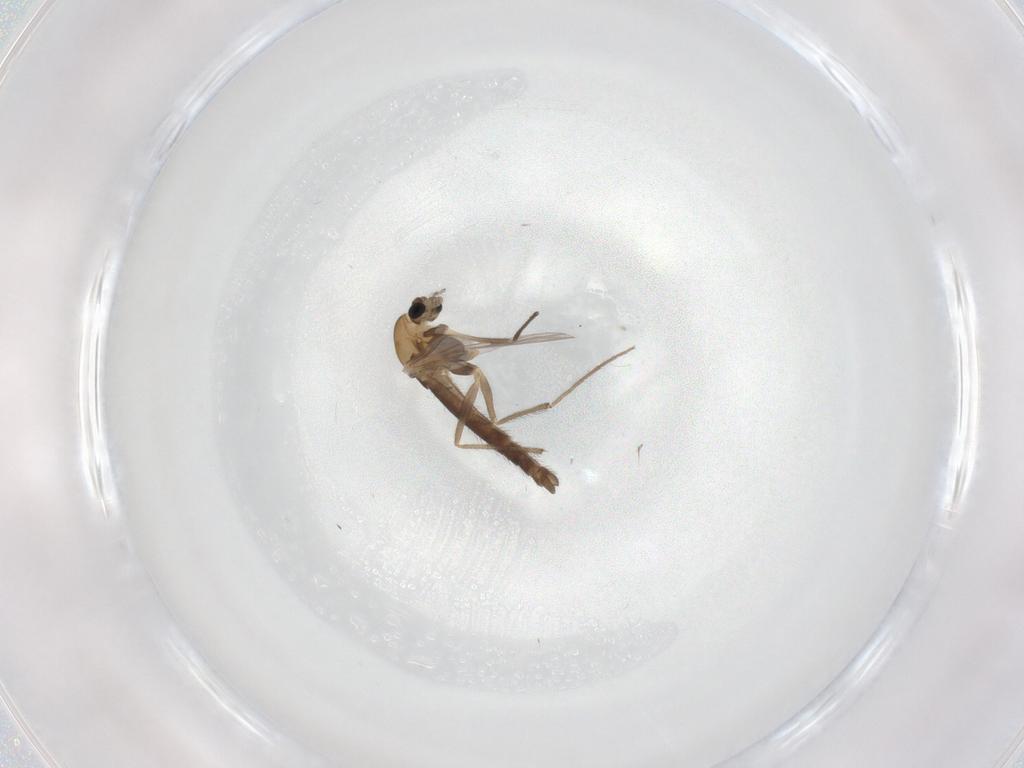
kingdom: Animalia
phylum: Arthropoda
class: Insecta
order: Diptera
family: Chironomidae
